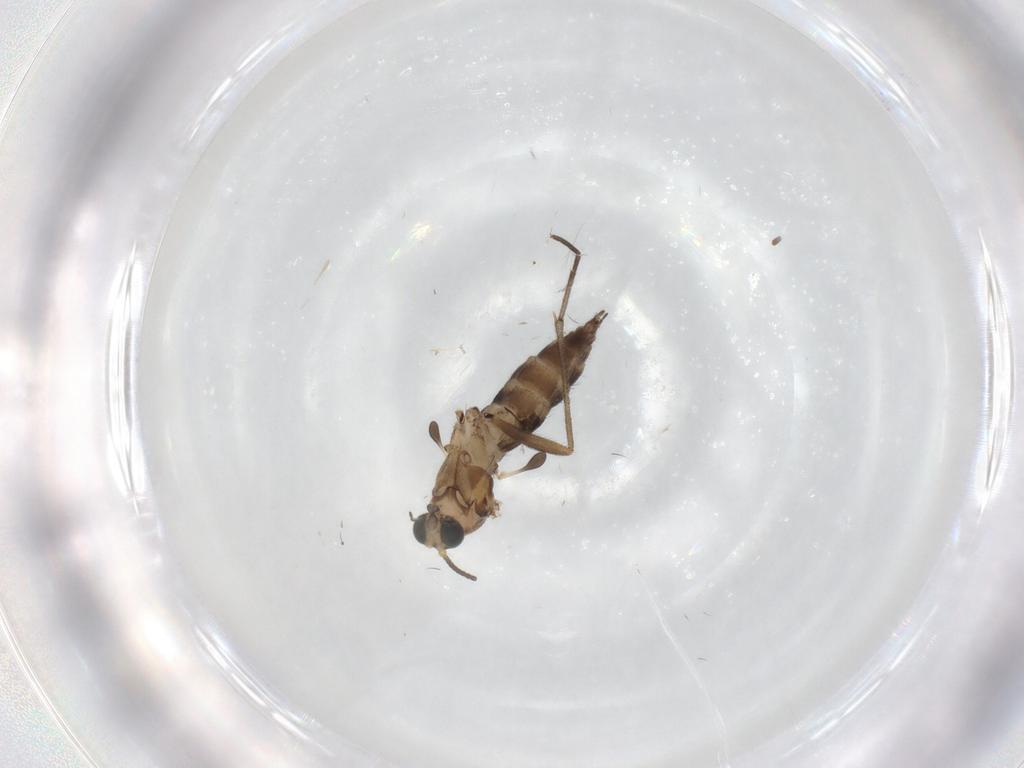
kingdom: Animalia
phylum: Arthropoda
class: Insecta
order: Diptera
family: Sciaridae
